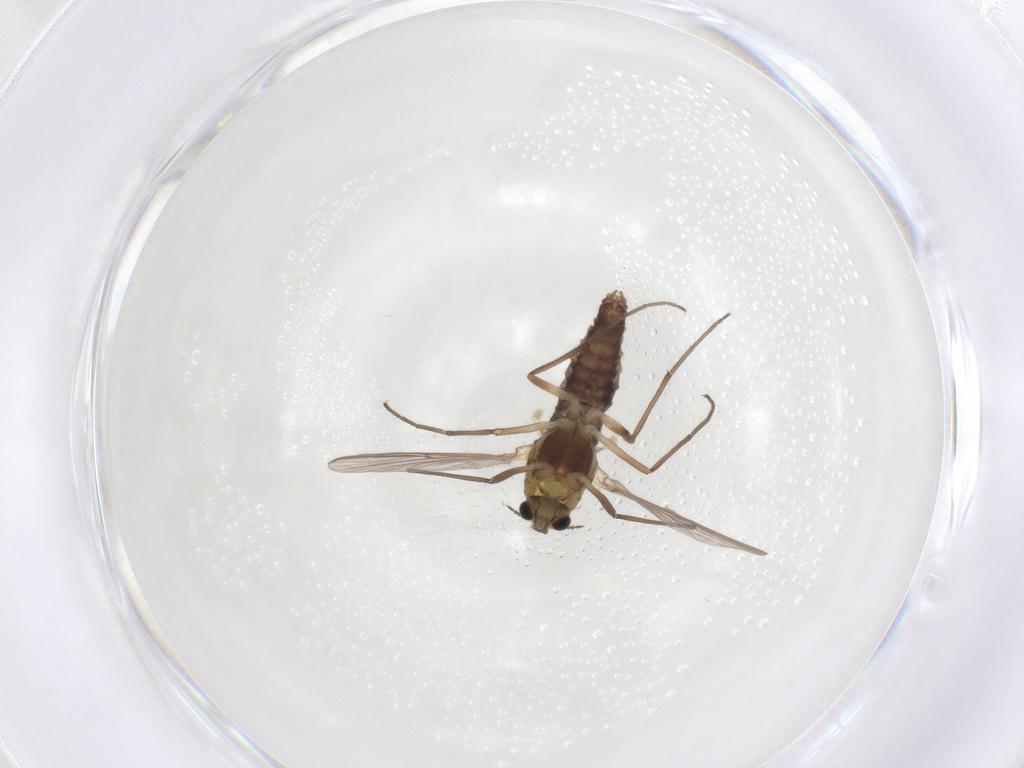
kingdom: Animalia
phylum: Arthropoda
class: Insecta
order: Diptera
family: Chironomidae
